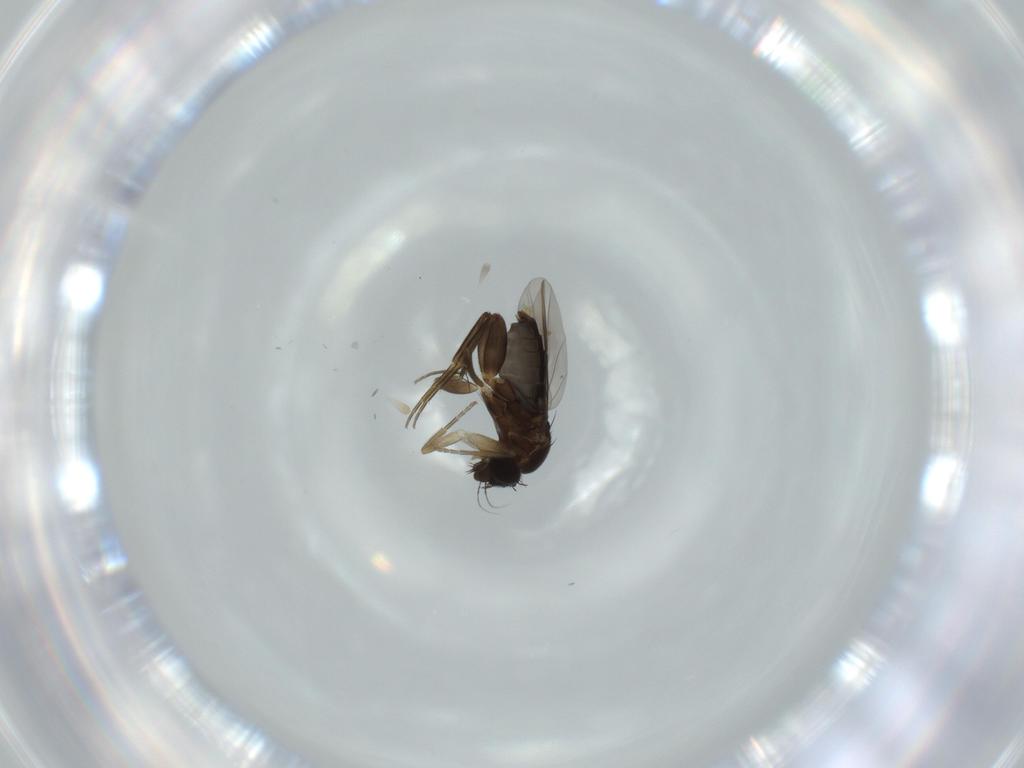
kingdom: Animalia
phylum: Arthropoda
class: Insecta
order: Diptera
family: Phoridae
